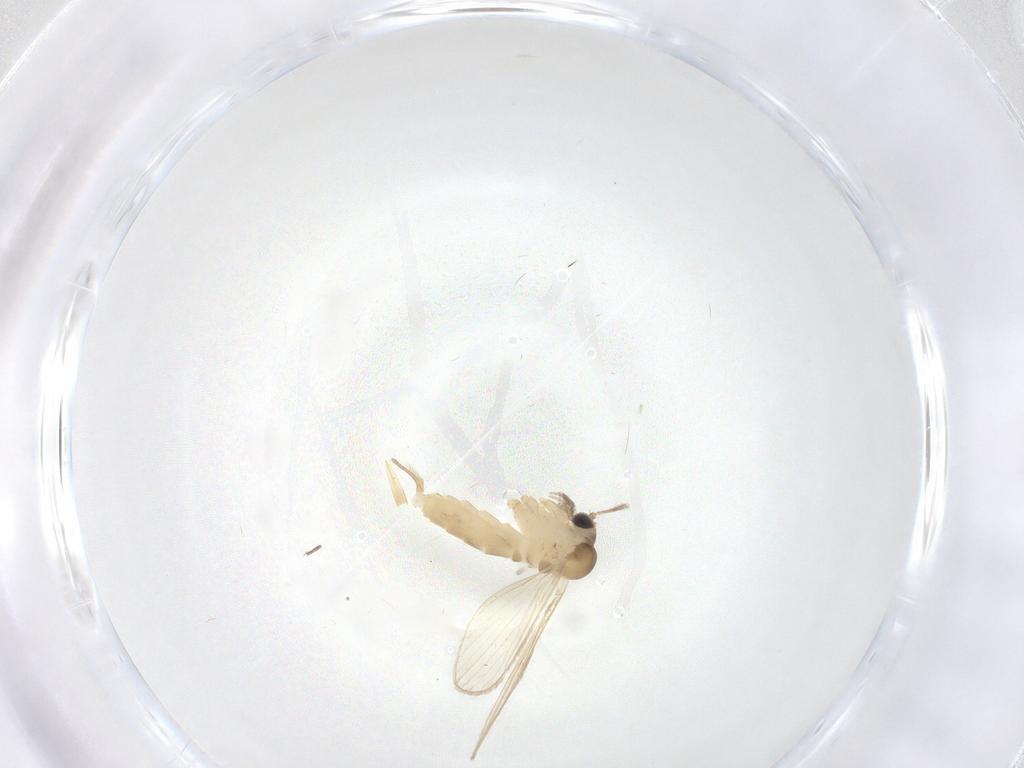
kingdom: Animalia
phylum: Arthropoda
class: Insecta
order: Diptera
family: Psychodidae
